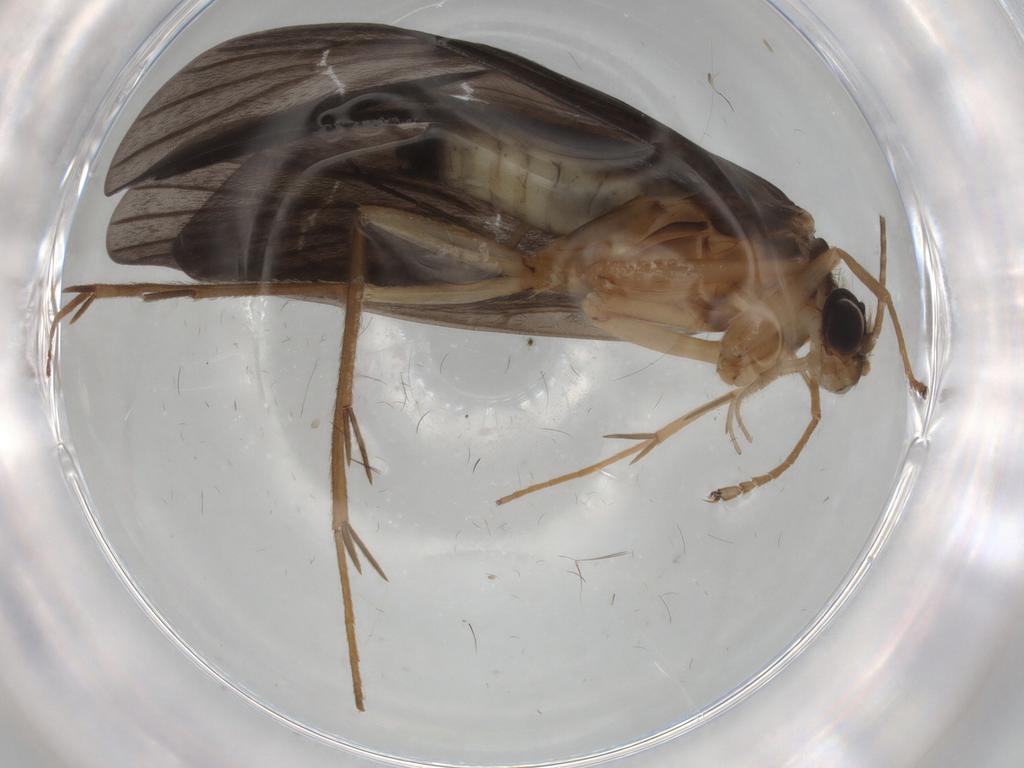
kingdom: Animalia
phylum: Arthropoda
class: Insecta
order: Trichoptera
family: Philopotamidae
